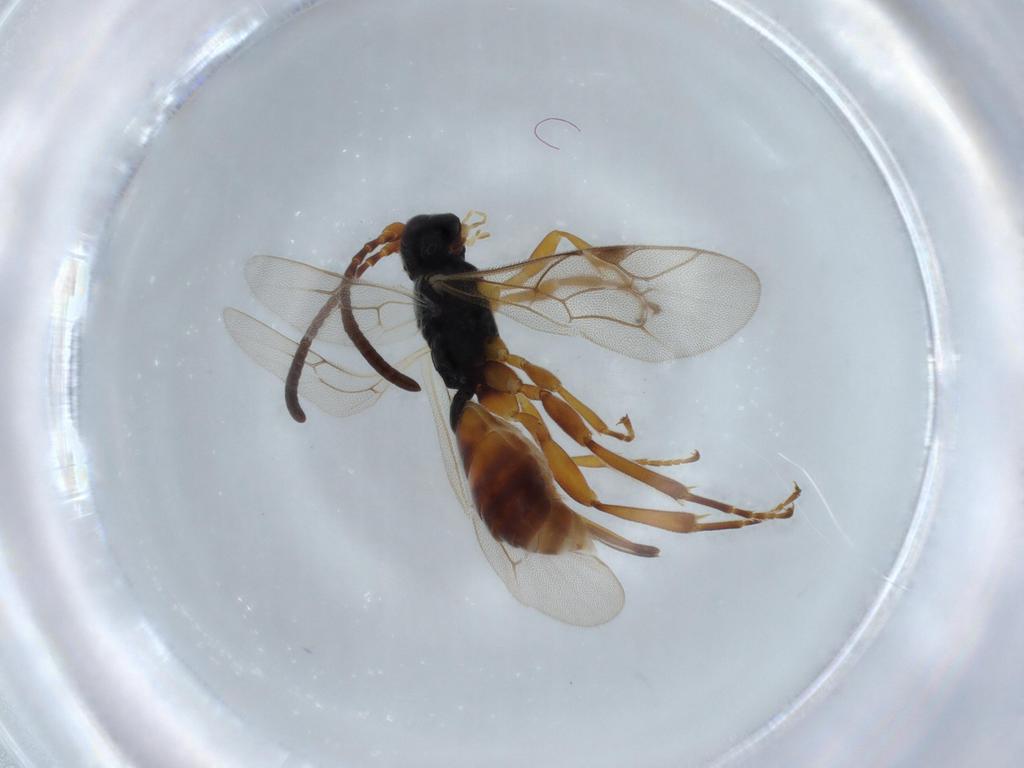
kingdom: Animalia
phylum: Arthropoda
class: Insecta
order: Hymenoptera
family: Ichneumonidae
